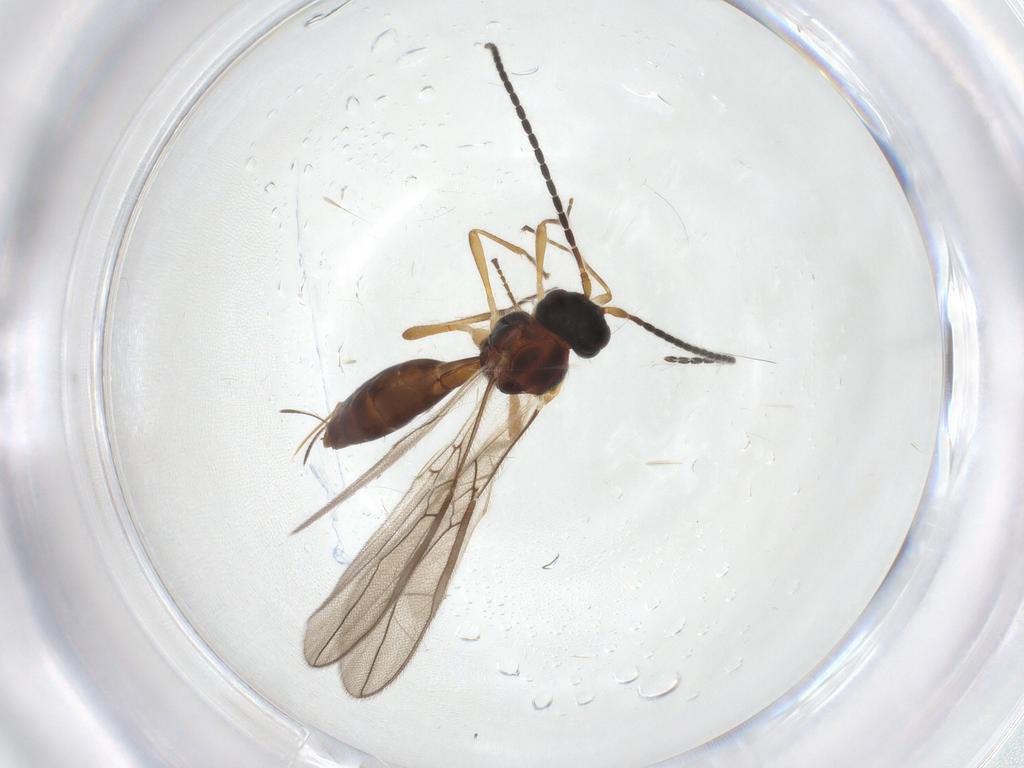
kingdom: Animalia
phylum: Arthropoda
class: Insecta
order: Hymenoptera
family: Braconidae
